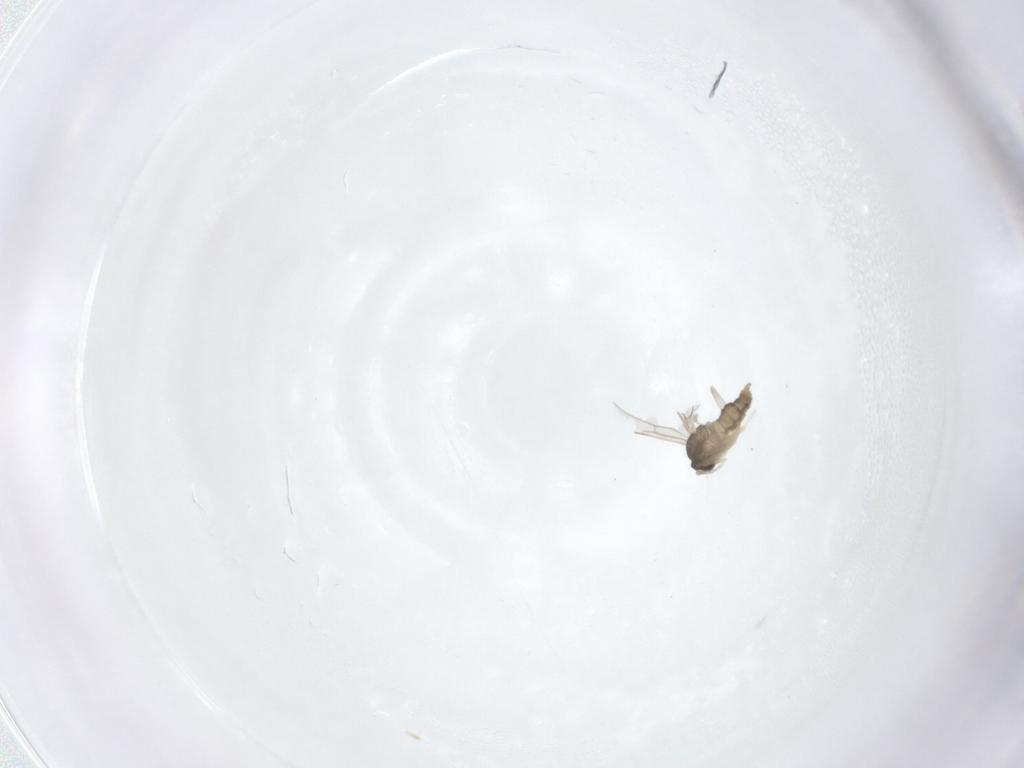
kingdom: Animalia
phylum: Arthropoda
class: Insecta
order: Diptera
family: Cecidomyiidae
